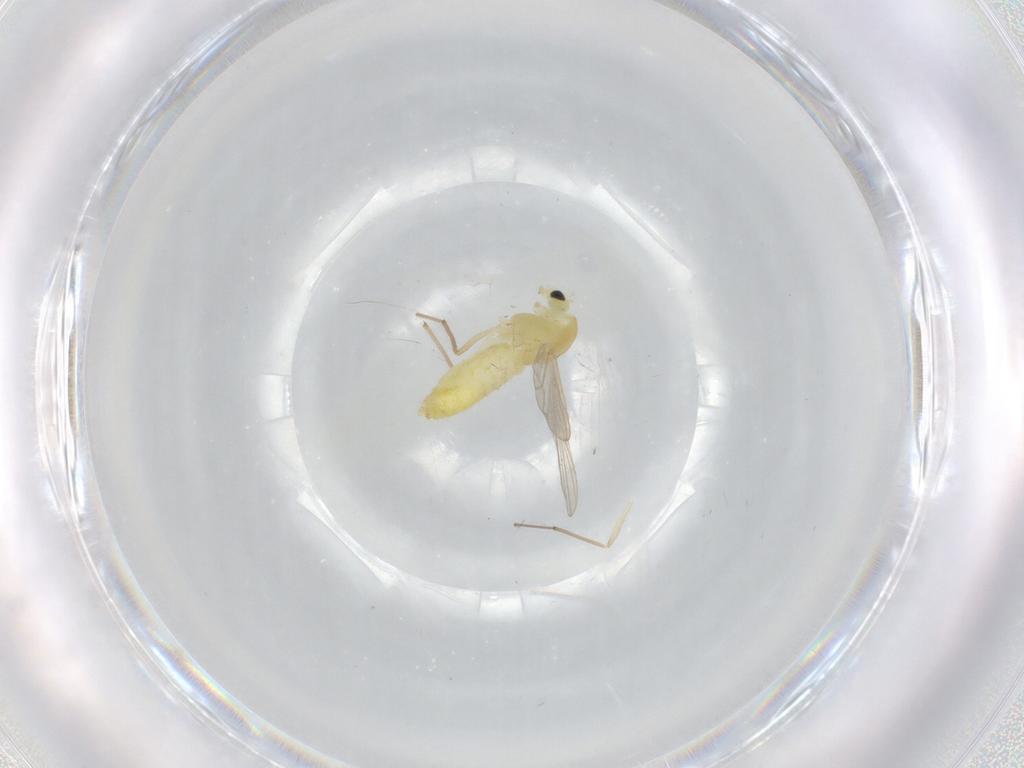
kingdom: Animalia
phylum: Arthropoda
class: Insecta
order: Diptera
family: Chironomidae
